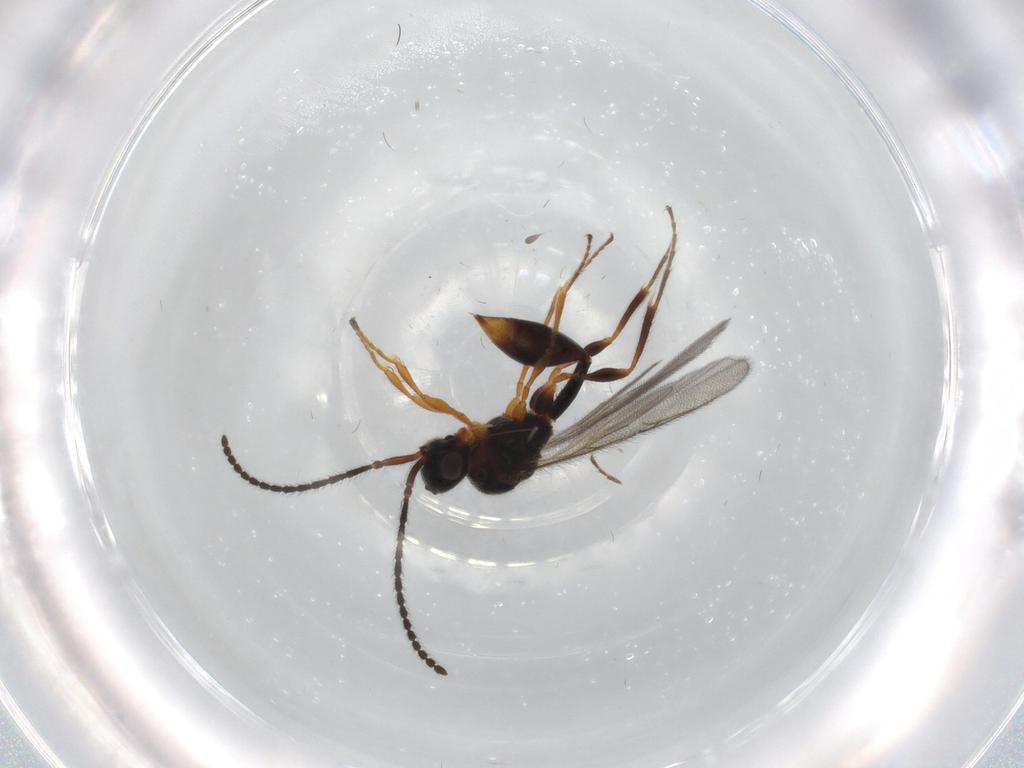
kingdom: Animalia
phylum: Arthropoda
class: Insecta
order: Hymenoptera
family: Diapriidae
